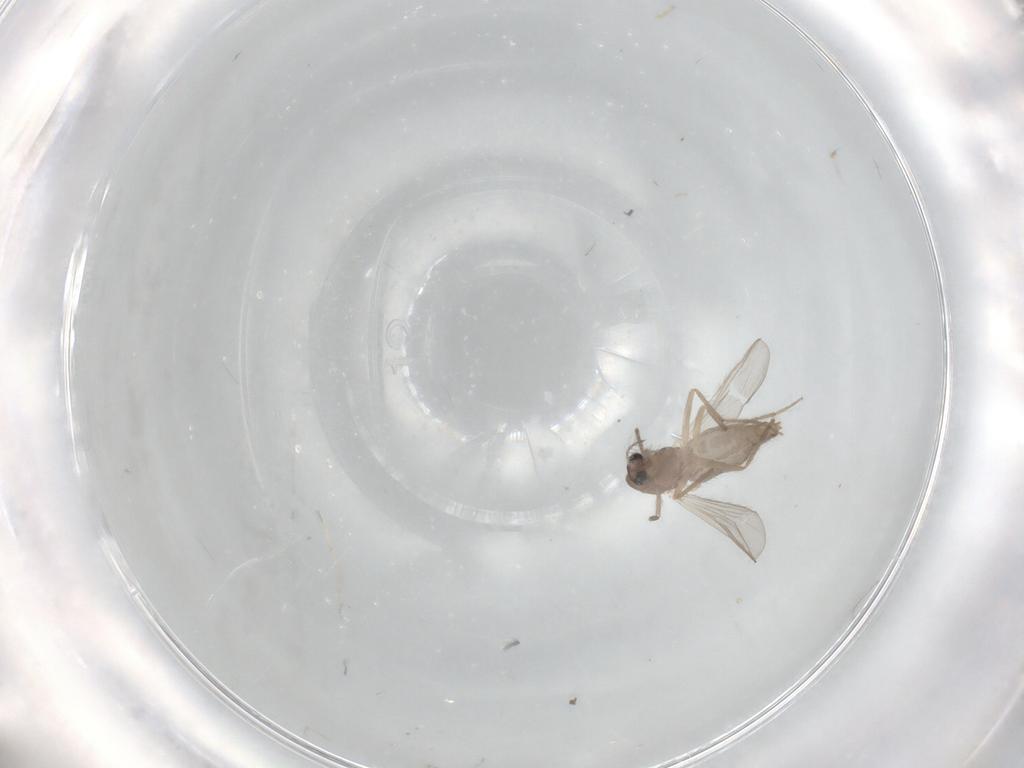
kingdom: Animalia
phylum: Arthropoda
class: Insecta
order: Diptera
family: Chironomidae
